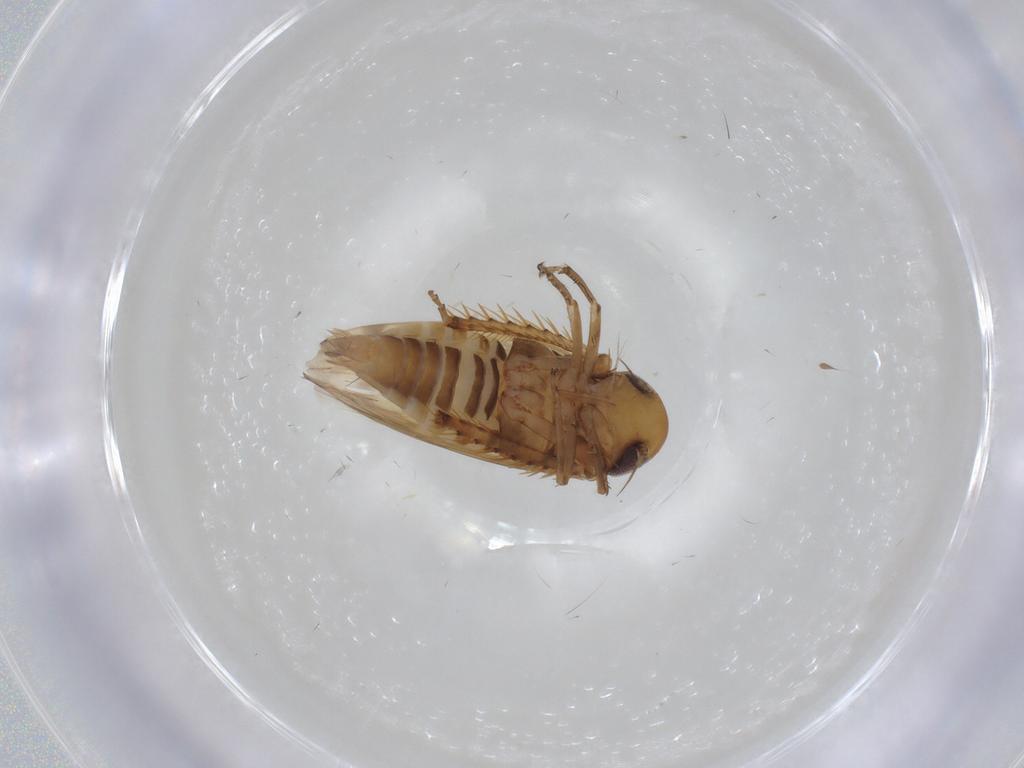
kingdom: Animalia
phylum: Arthropoda
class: Insecta
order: Hemiptera
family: Cicadellidae
